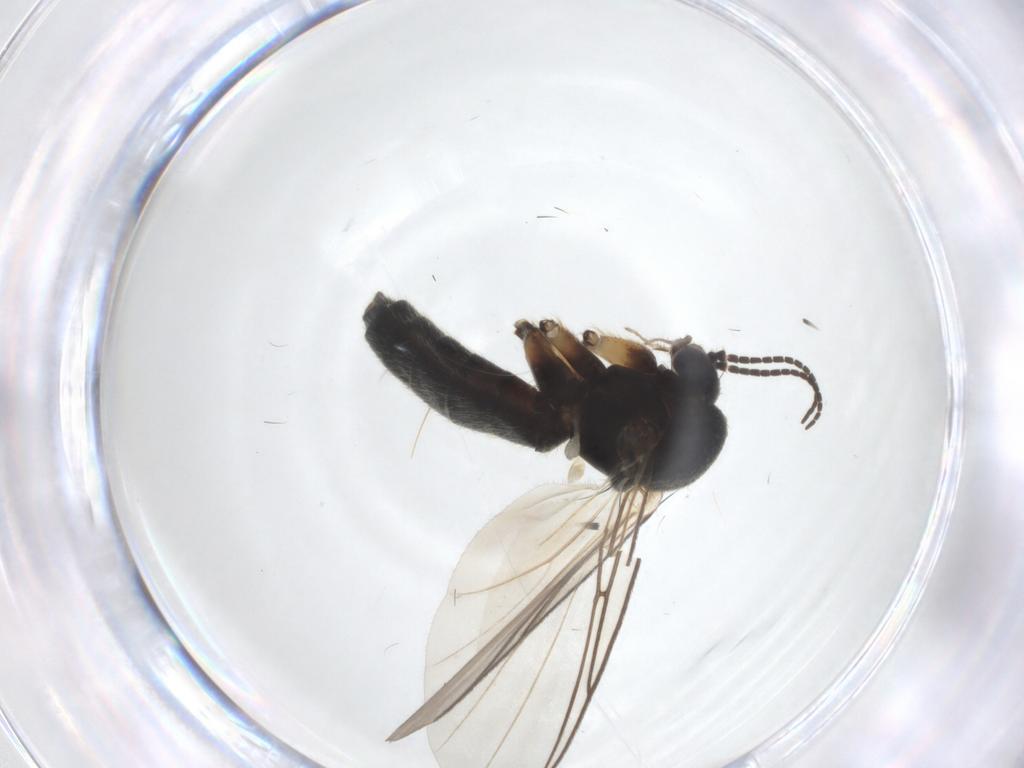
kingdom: Animalia
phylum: Arthropoda
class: Insecta
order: Diptera
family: Mycetophilidae
